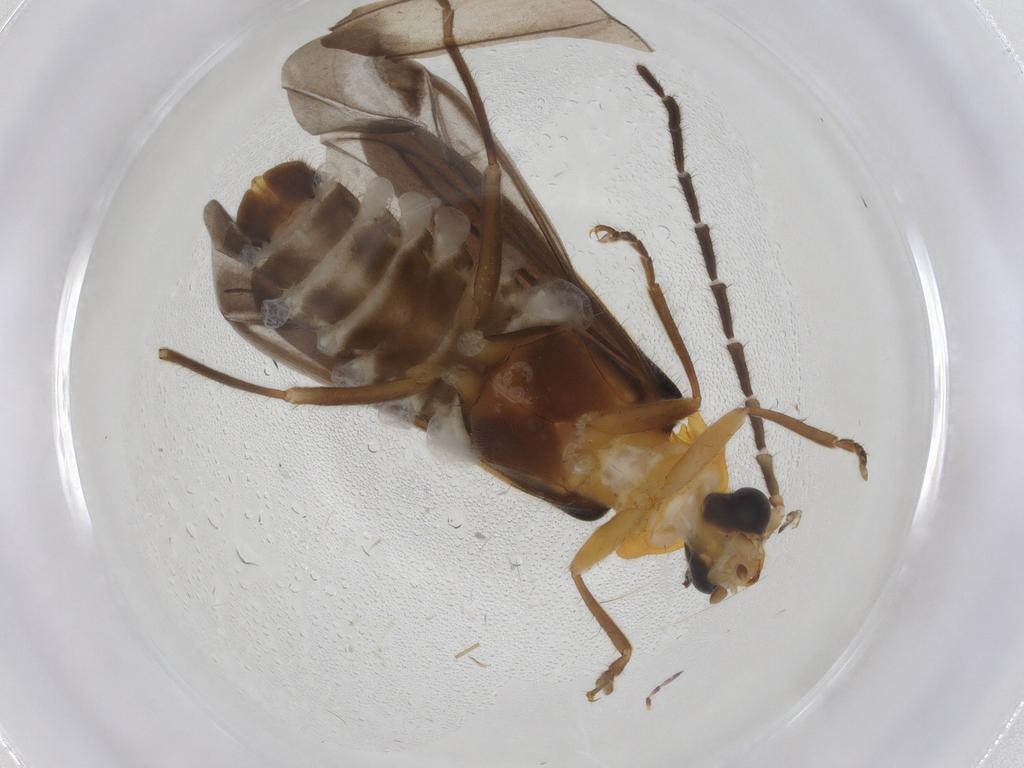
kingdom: Animalia
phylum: Arthropoda
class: Insecta
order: Coleoptera
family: Cantharidae
